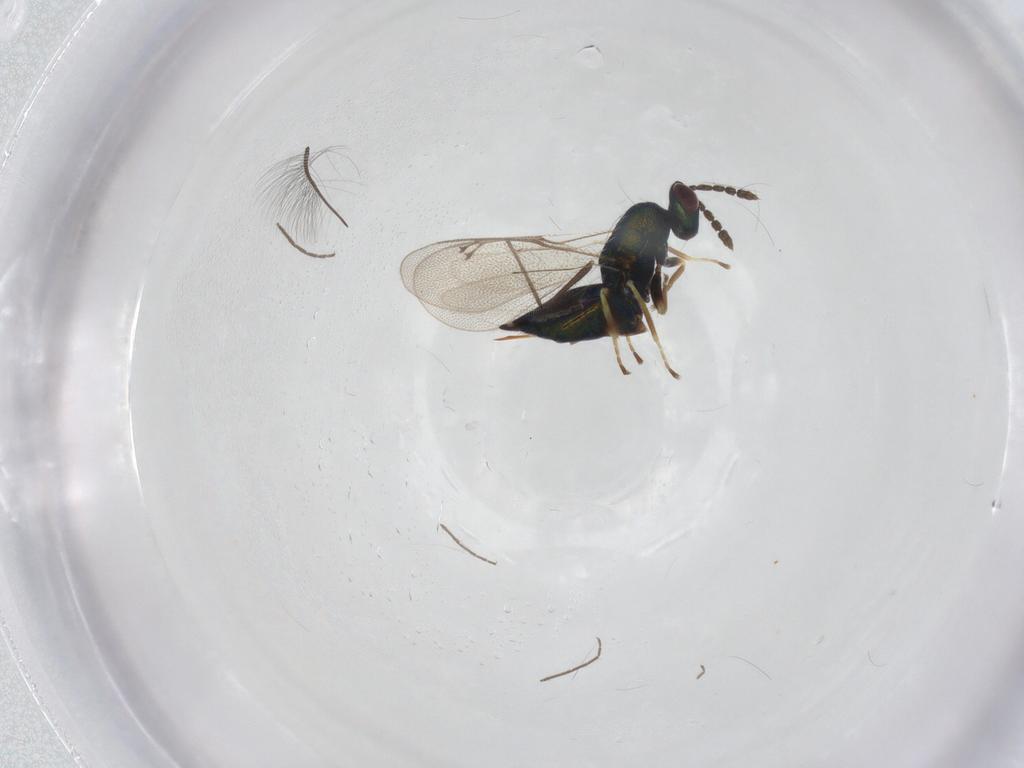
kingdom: Animalia
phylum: Arthropoda
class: Insecta
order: Hymenoptera
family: Eulophidae
